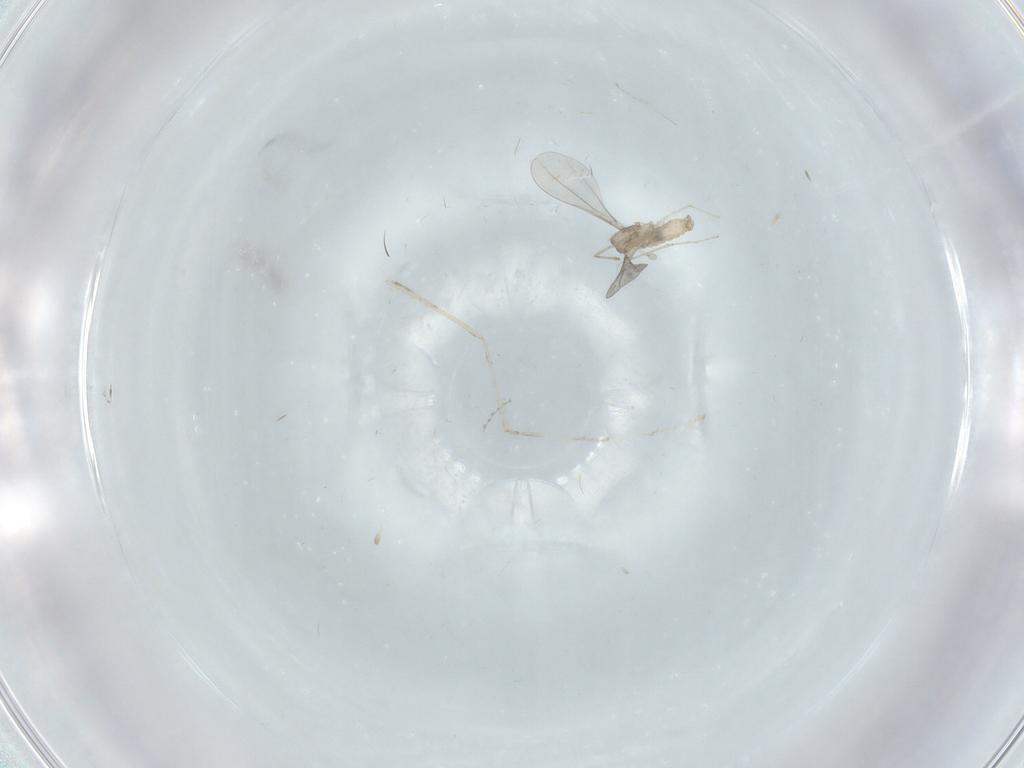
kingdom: Animalia
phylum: Arthropoda
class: Insecta
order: Diptera
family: Cecidomyiidae
